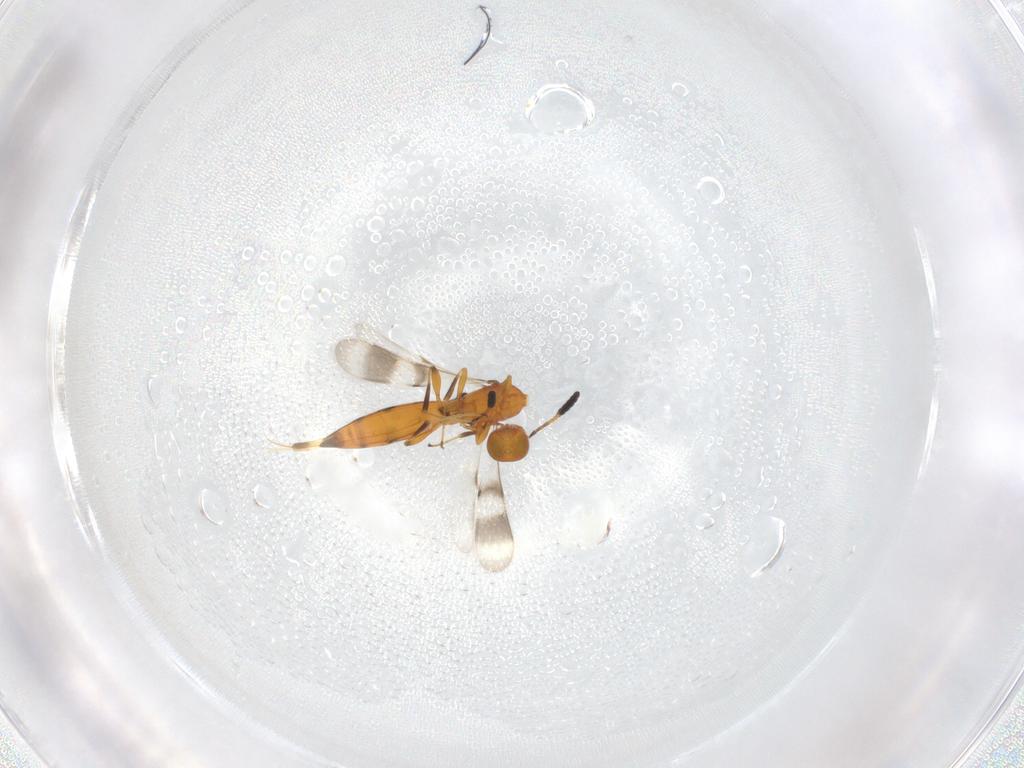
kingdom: Animalia
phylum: Arthropoda
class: Insecta
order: Hymenoptera
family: Scelionidae
